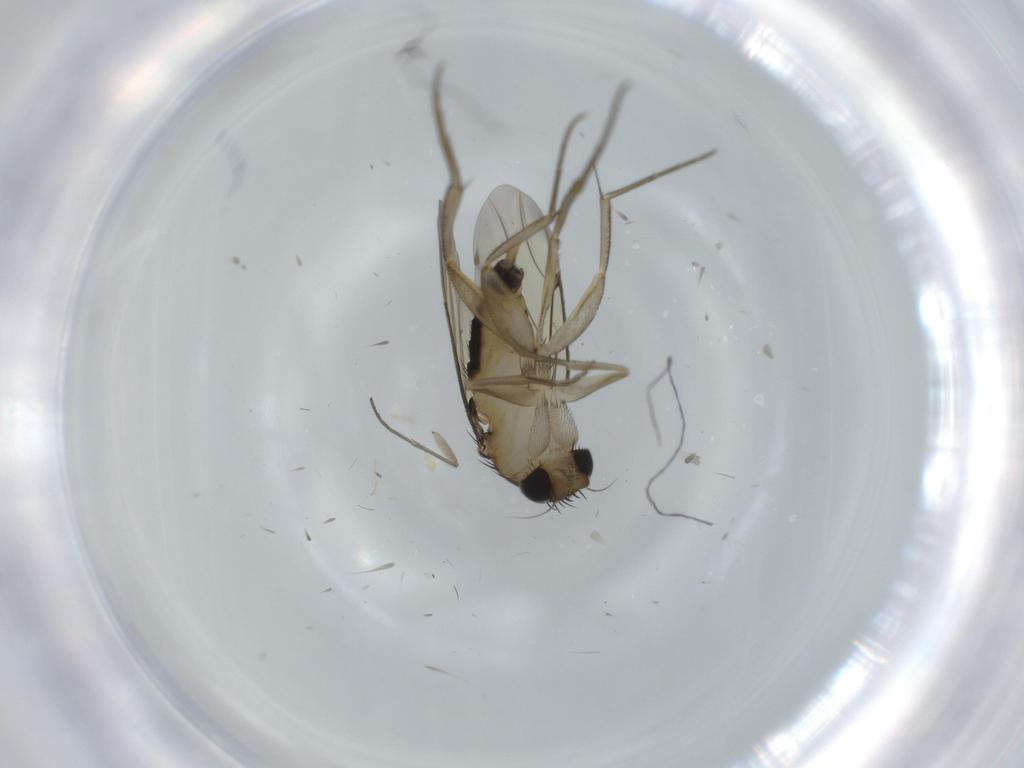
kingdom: Animalia
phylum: Arthropoda
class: Insecta
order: Diptera
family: Phoridae
